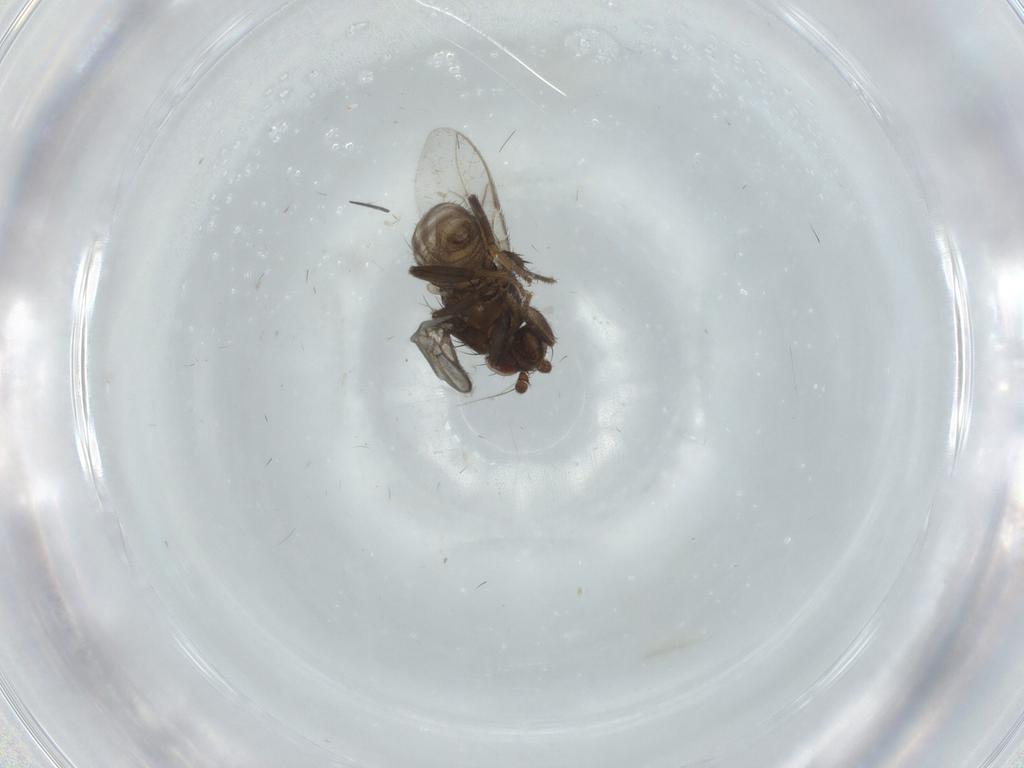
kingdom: Animalia
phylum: Arthropoda
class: Insecta
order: Diptera
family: Sphaeroceridae
